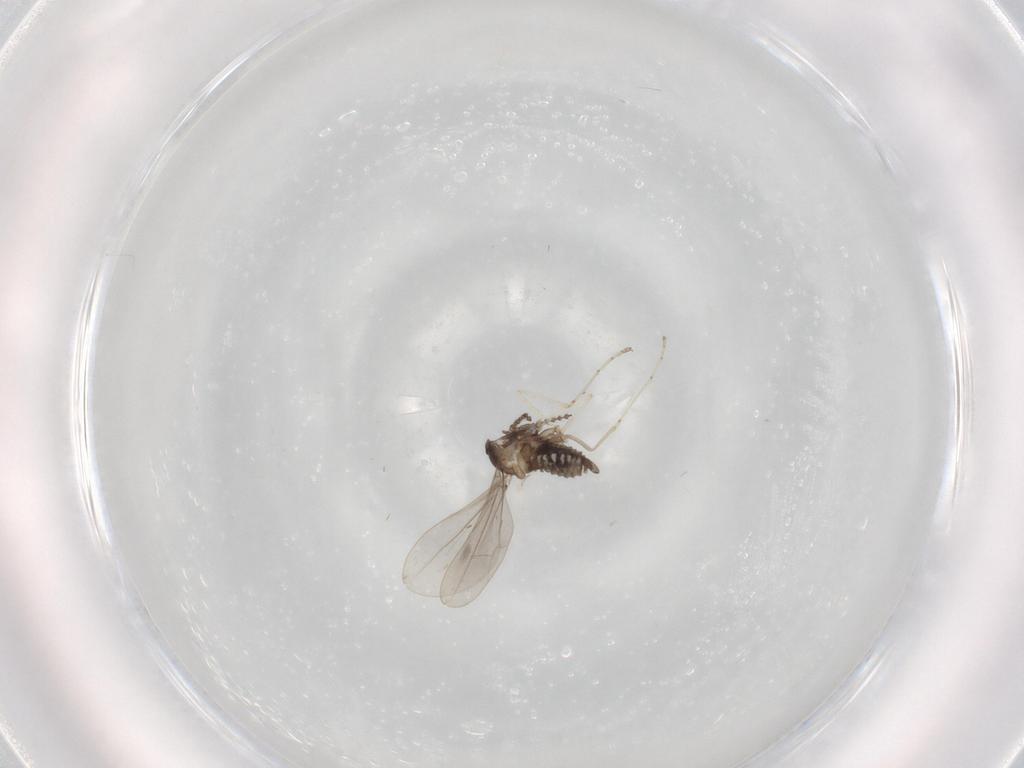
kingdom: Animalia
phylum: Arthropoda
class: Insecta
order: Diptera
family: Cecidomyiidae
